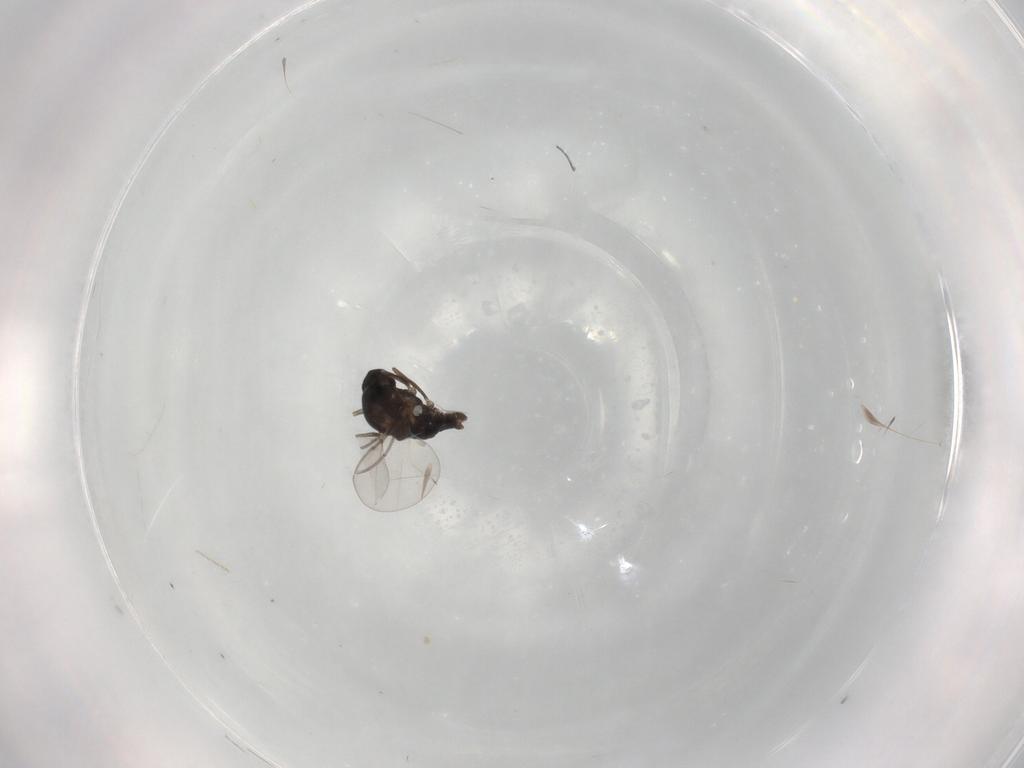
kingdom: Animalia
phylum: Arthropoda
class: Insecta
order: Diptera
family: Cecidomyiidae
